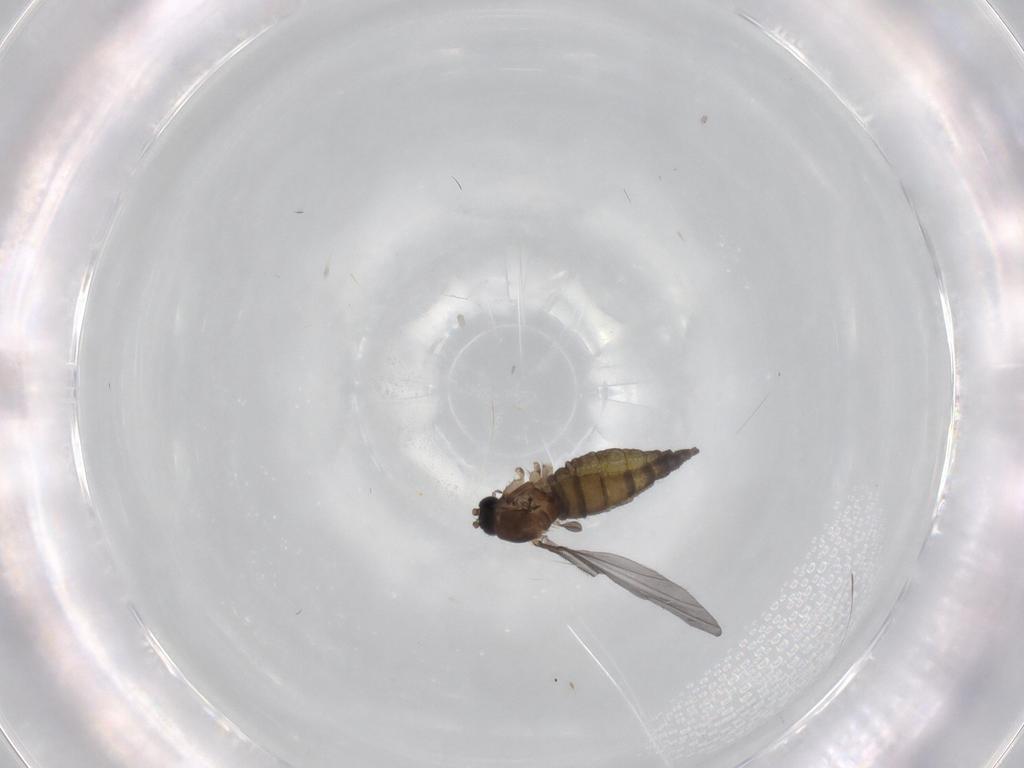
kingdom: Animalia
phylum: Arthropoda
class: Insecta
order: Diptera
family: Sciaridae
